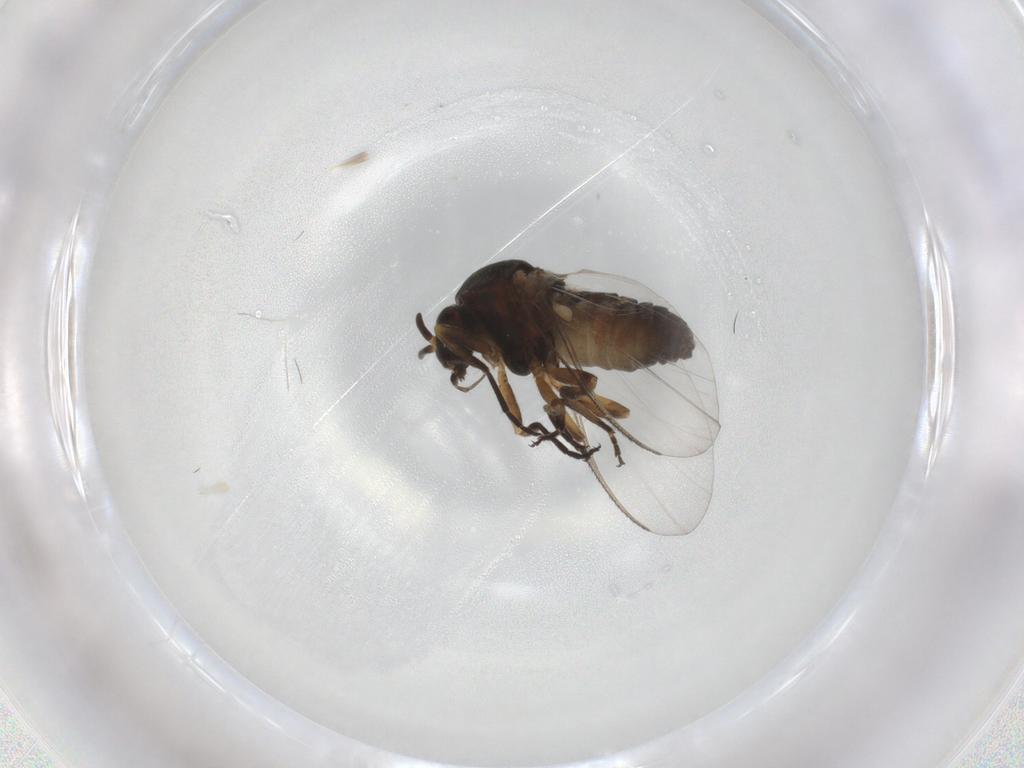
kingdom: Animalia
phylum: Arthropoda
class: Insecta
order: Diptera
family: Ceratopogonidae
